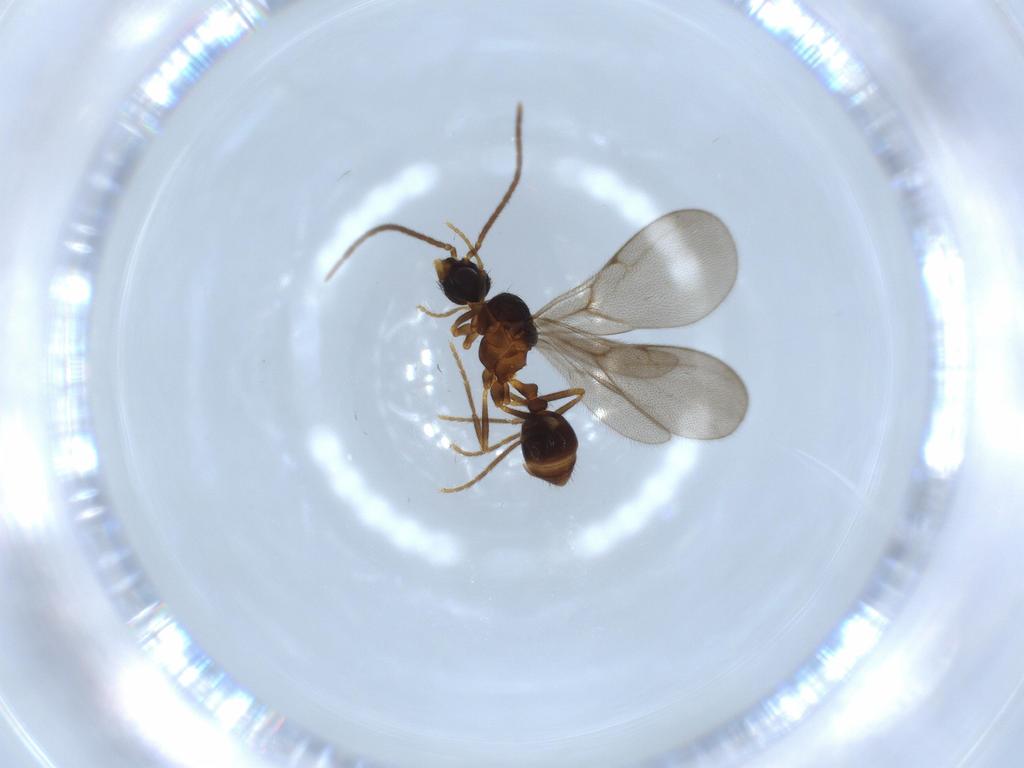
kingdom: Animalia
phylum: Arthropoda
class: Insecta
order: Hymenoptera
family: Formicidae
